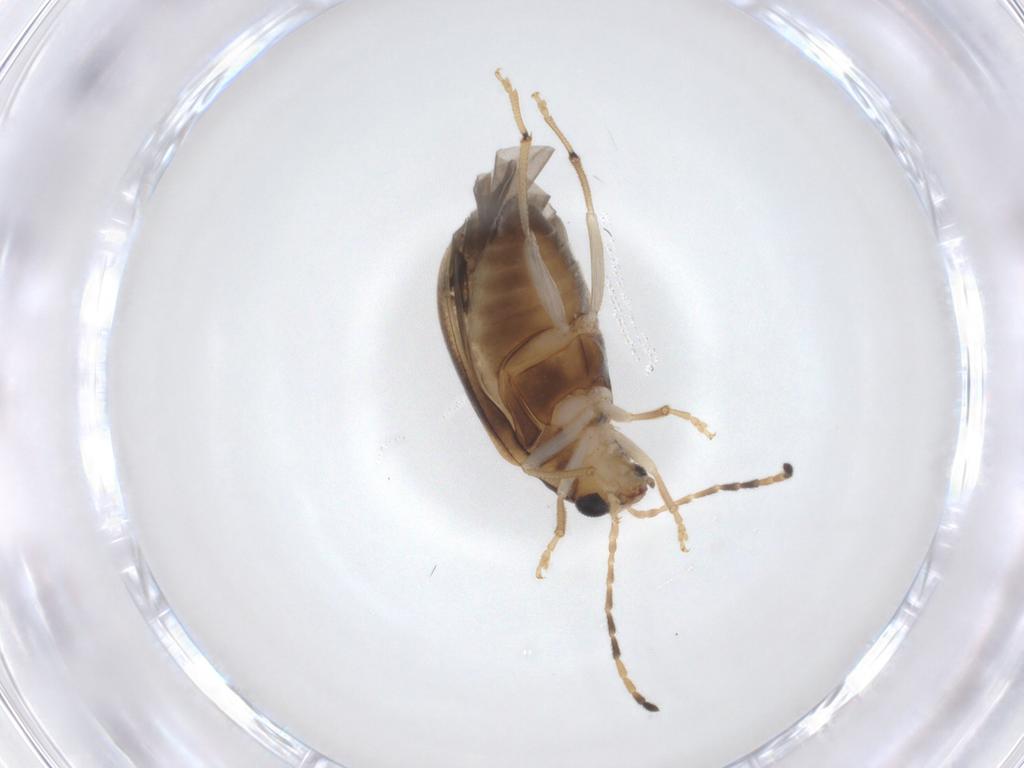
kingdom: Animalia
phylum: Arthropoda
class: Insecta
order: Coleoptera
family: Chrysomelidae
